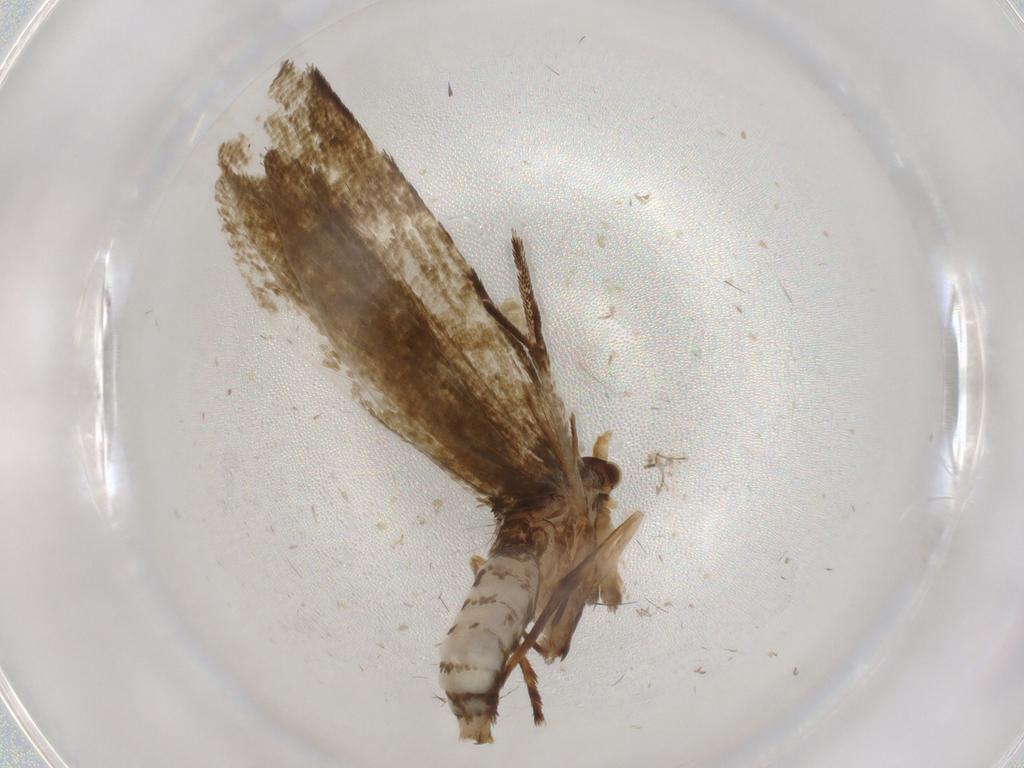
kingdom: Animalia
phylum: Arthropoda
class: Insecta
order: Lepidoptera
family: Tineidae
